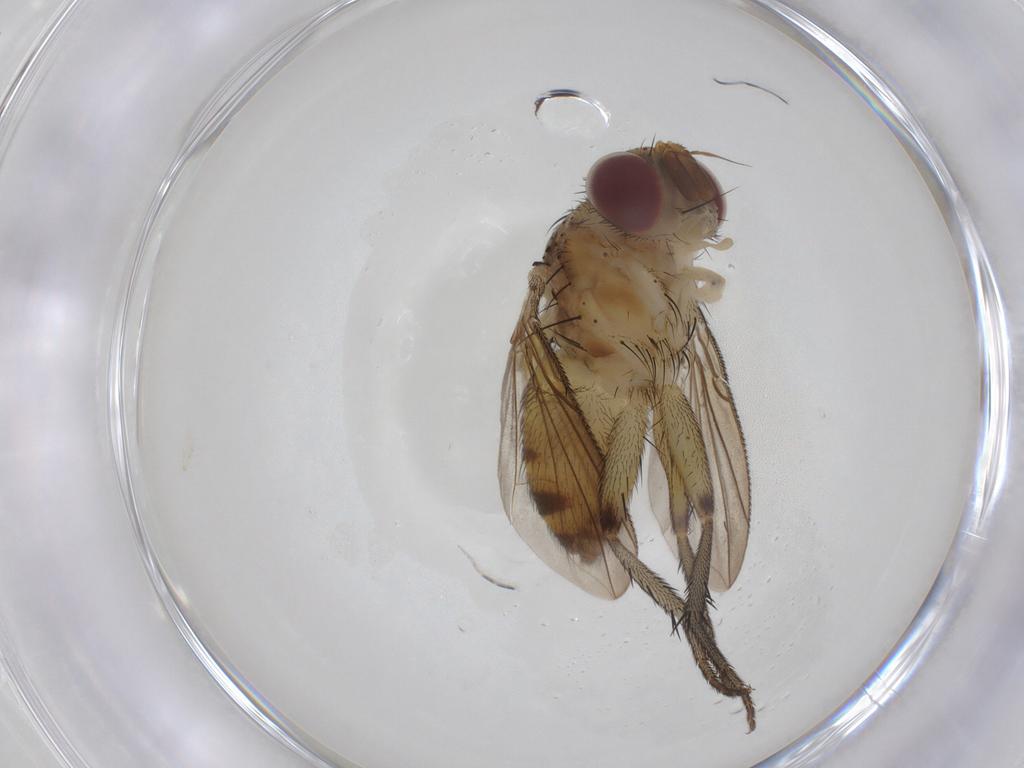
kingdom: Animalia
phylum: Arthropoda
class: Insecta
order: Diptera
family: Tachinidae
